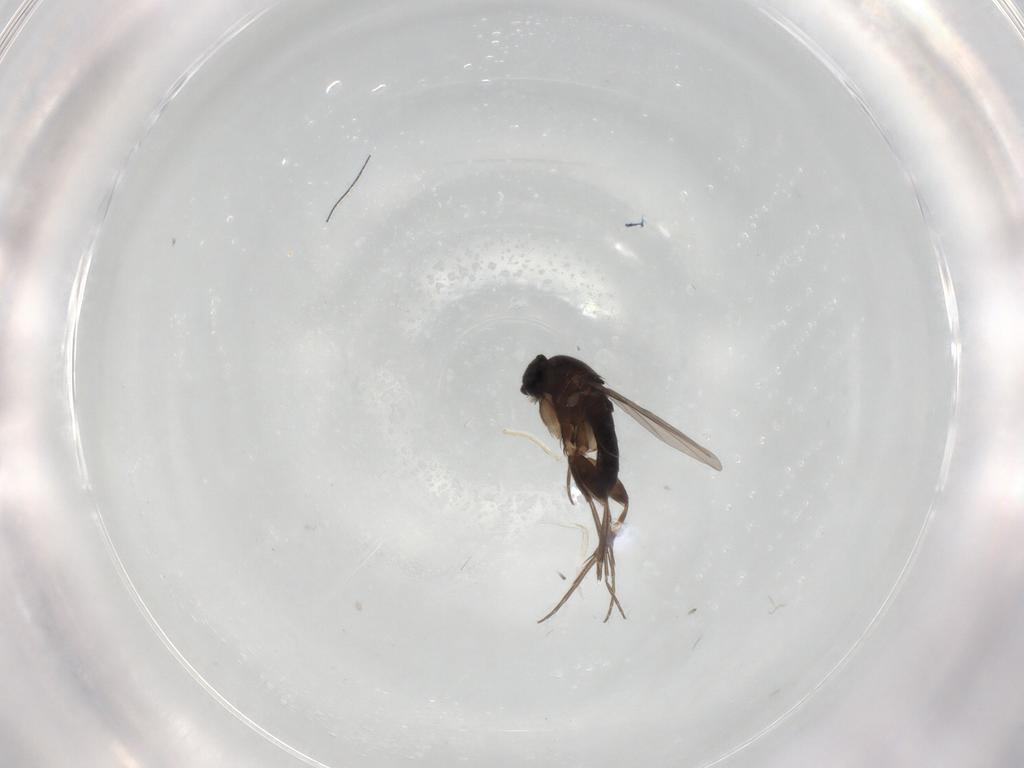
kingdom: Animalia
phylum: Arthropoda
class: Insecta
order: Diptera
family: Phoridae
